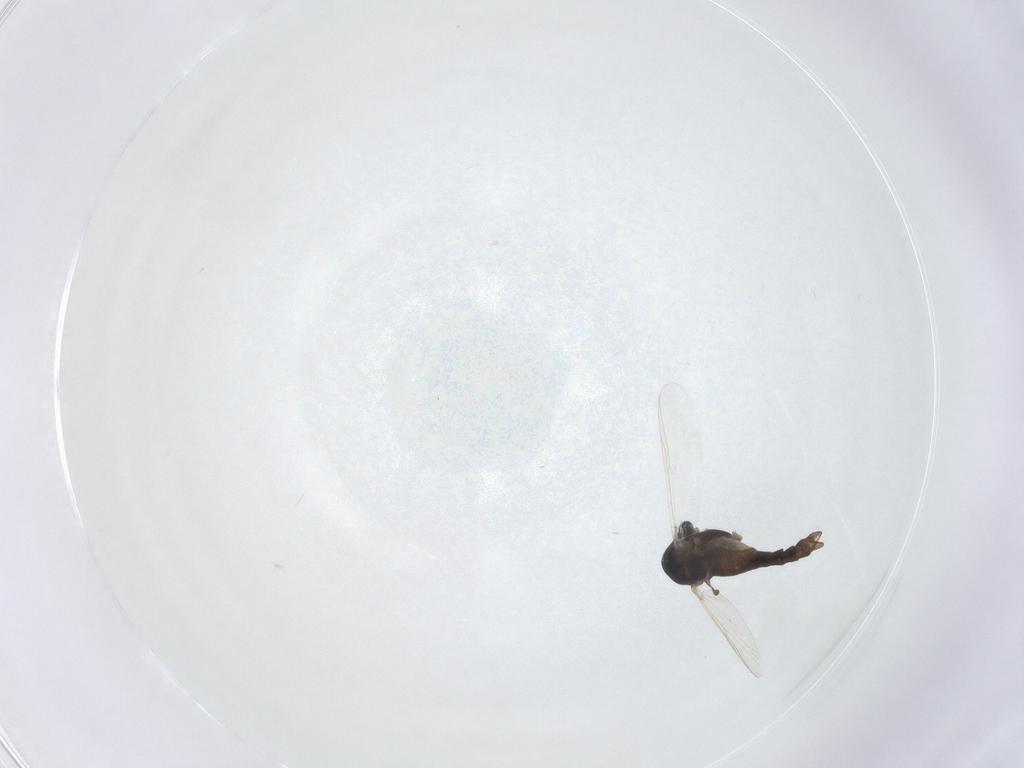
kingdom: Animalia
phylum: Arthropoda
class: Insecta
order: Diptera
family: Chironomidae
